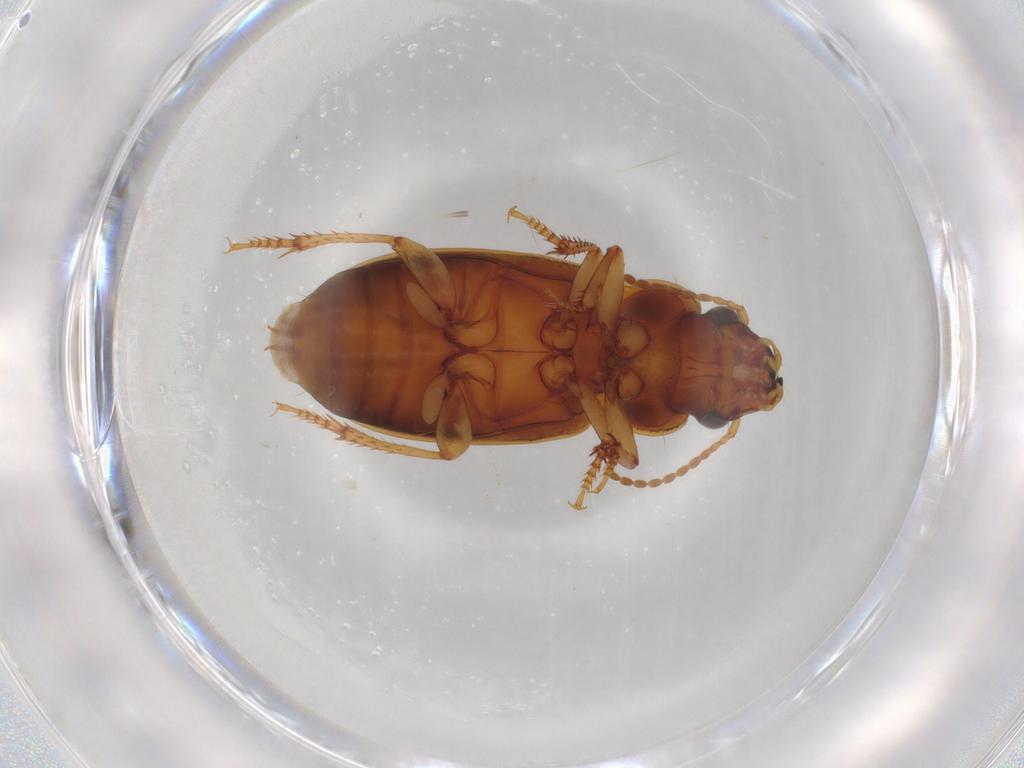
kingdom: Animalia
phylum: Arthropoda
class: Insecta
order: Coleoptera
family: Carabidae
